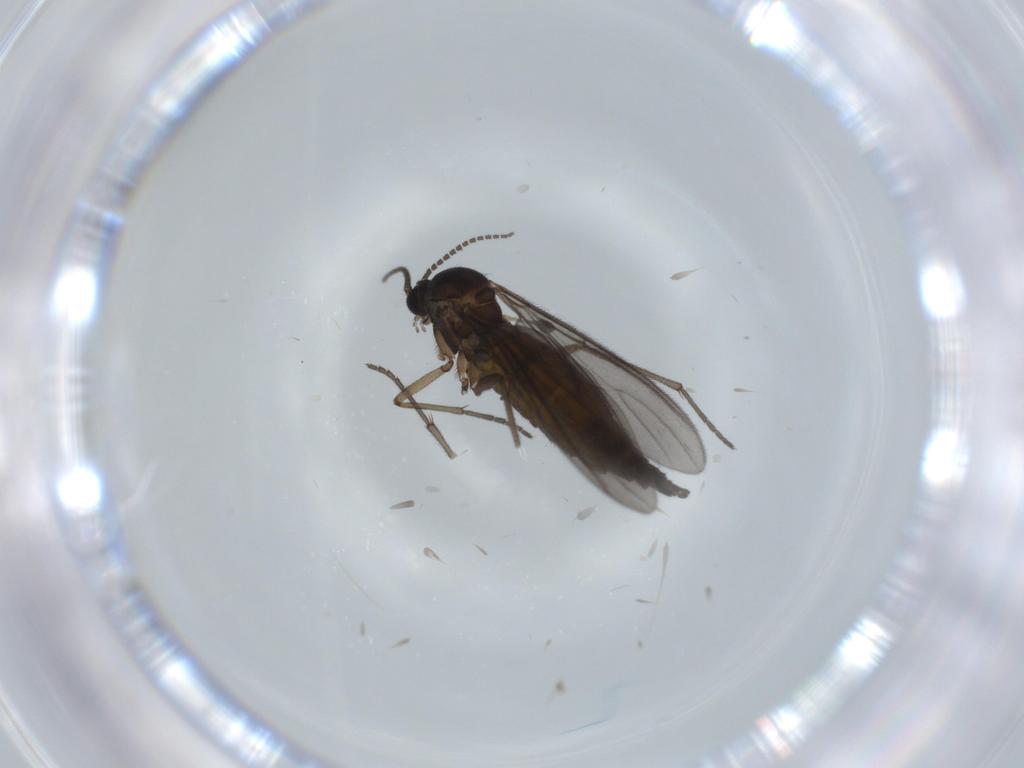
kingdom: Animalia
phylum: Arthropoda
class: Insecta
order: Diptera
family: Sciaridae
